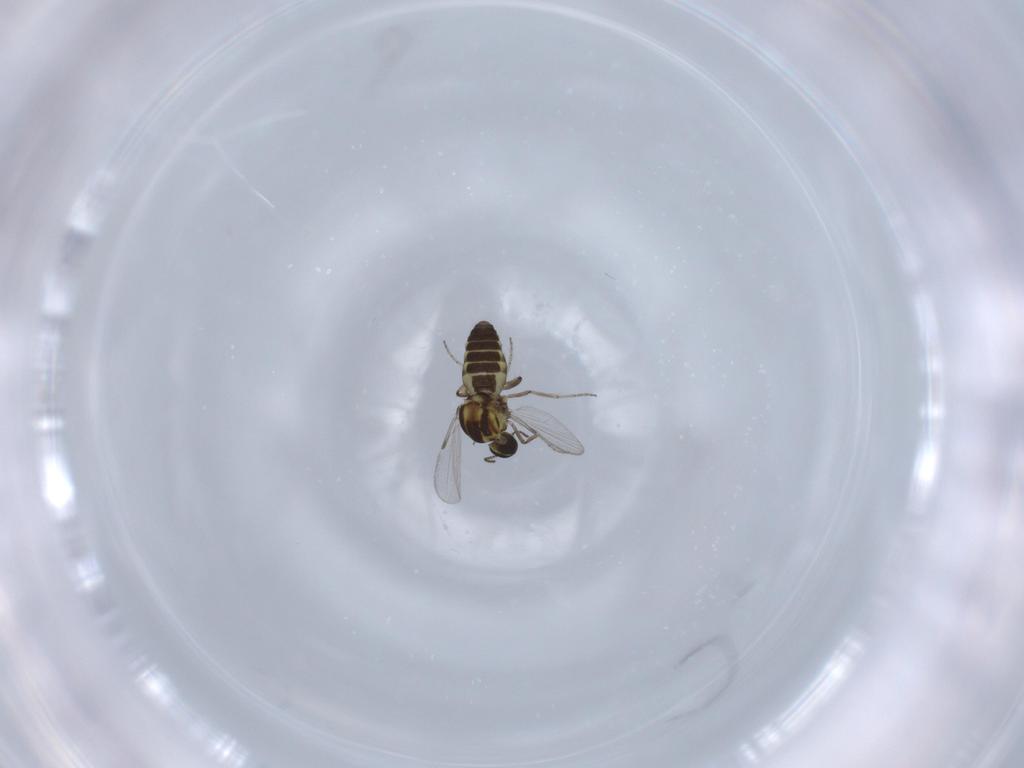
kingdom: Animalia
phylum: Arthropoda
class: Insecta
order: Diptera
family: Ceratopogonidae
